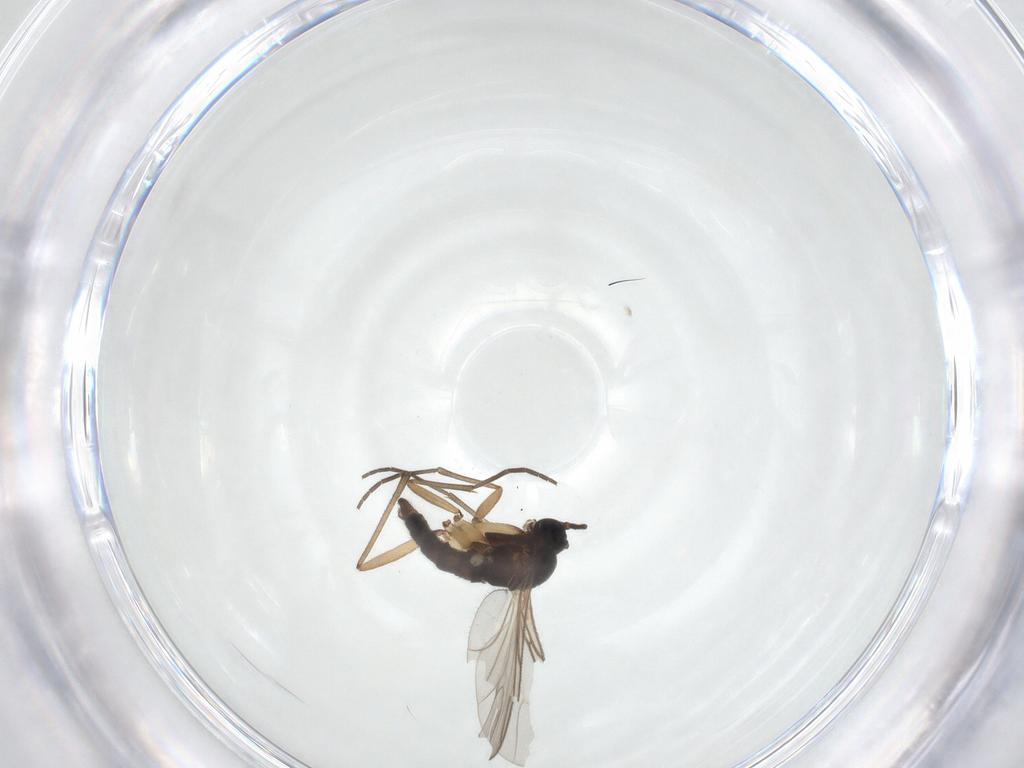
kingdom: Animalia
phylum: Arthropoda
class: Insecta
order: Diptera
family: Sciaridae
